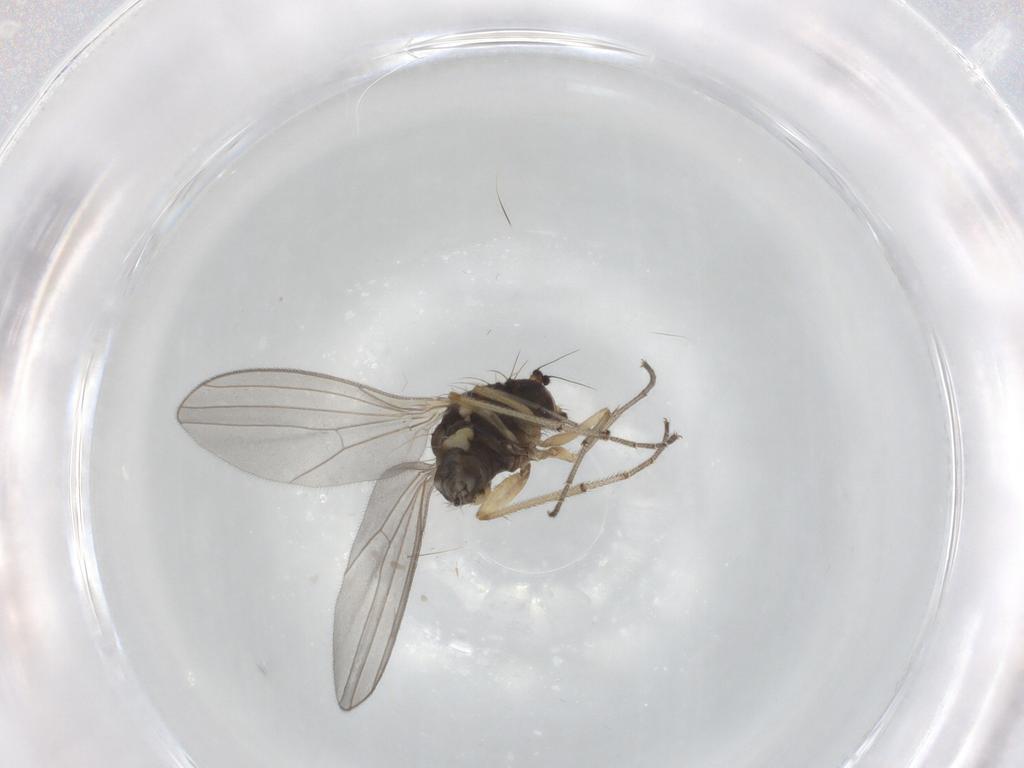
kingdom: Animalia
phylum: Arthropoda
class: Insecta
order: Diptera
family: Dolichopodidae
